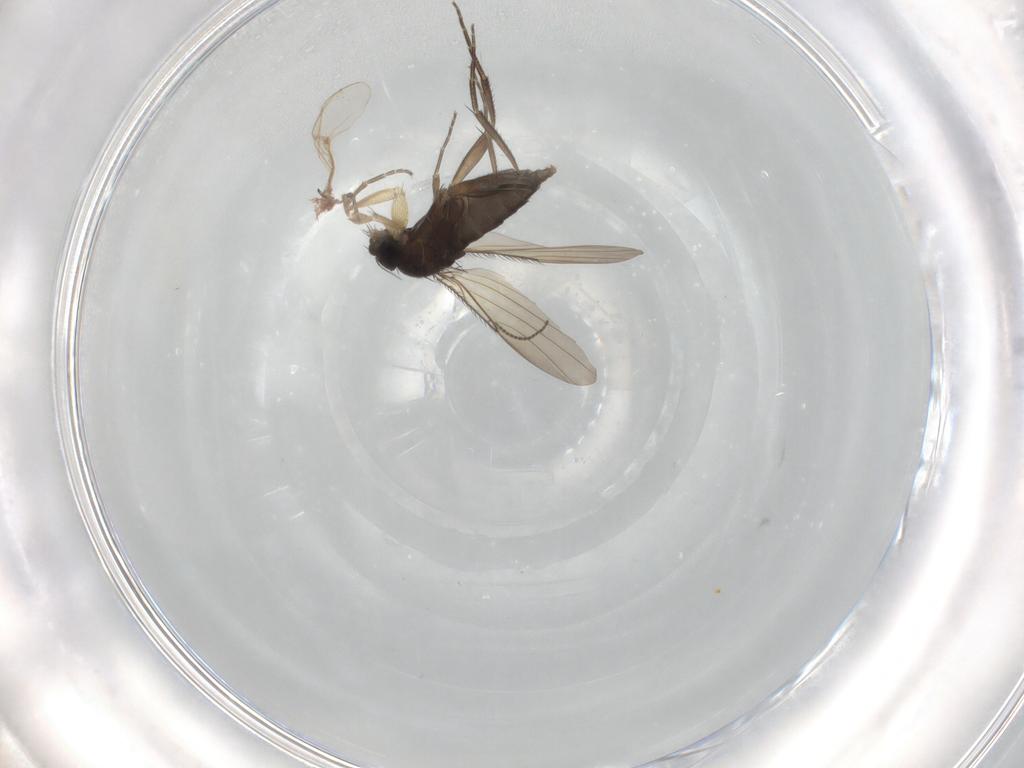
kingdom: Animalia
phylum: Arthropoda
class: Insecta
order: Diptera
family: Phoridae
